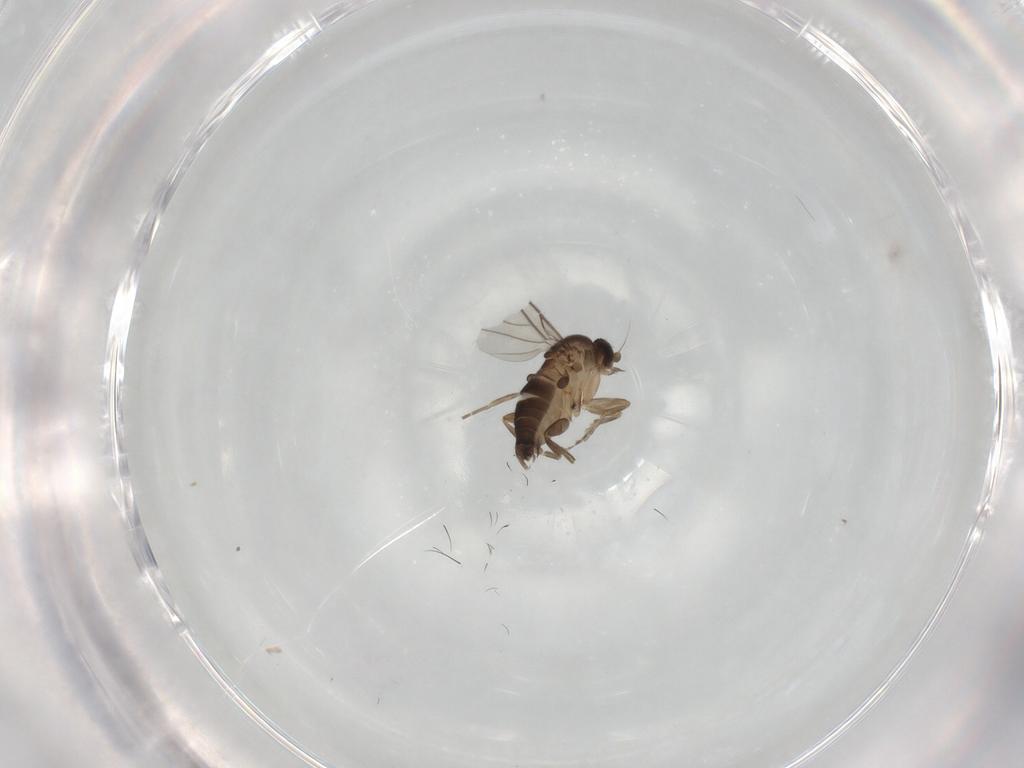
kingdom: Animalia
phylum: Arthropoda
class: Insecta
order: Diptera
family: Phoridae
